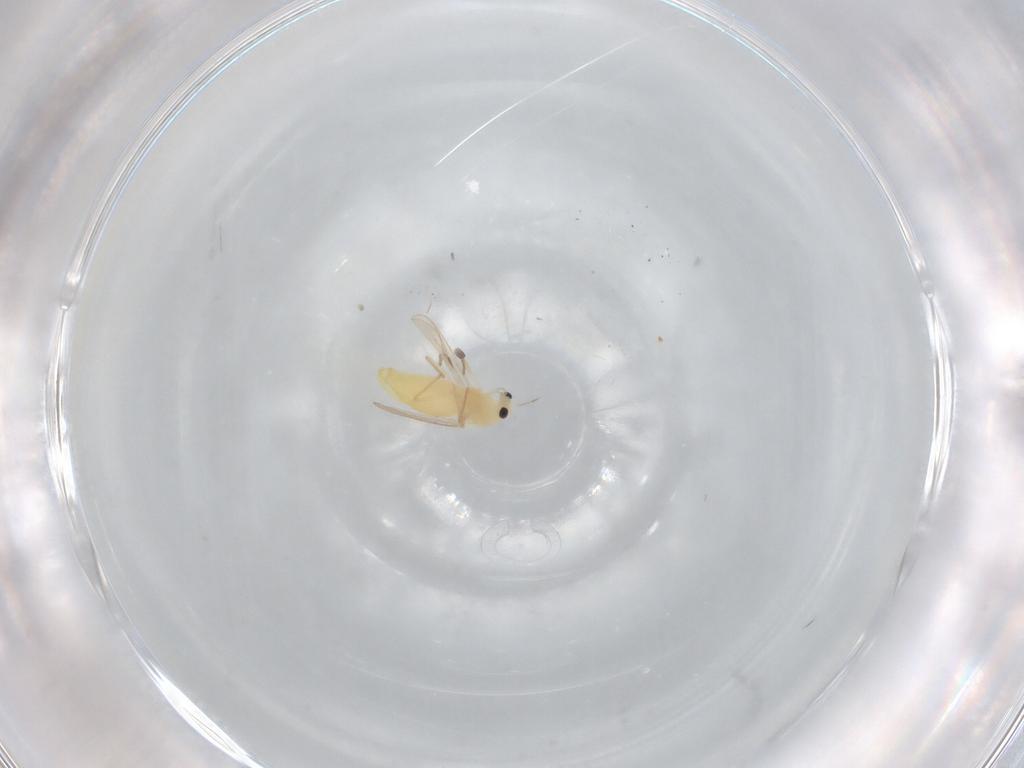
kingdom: Animalia
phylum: Arthropoda
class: Insecta
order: Diptera
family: Chironomidae
